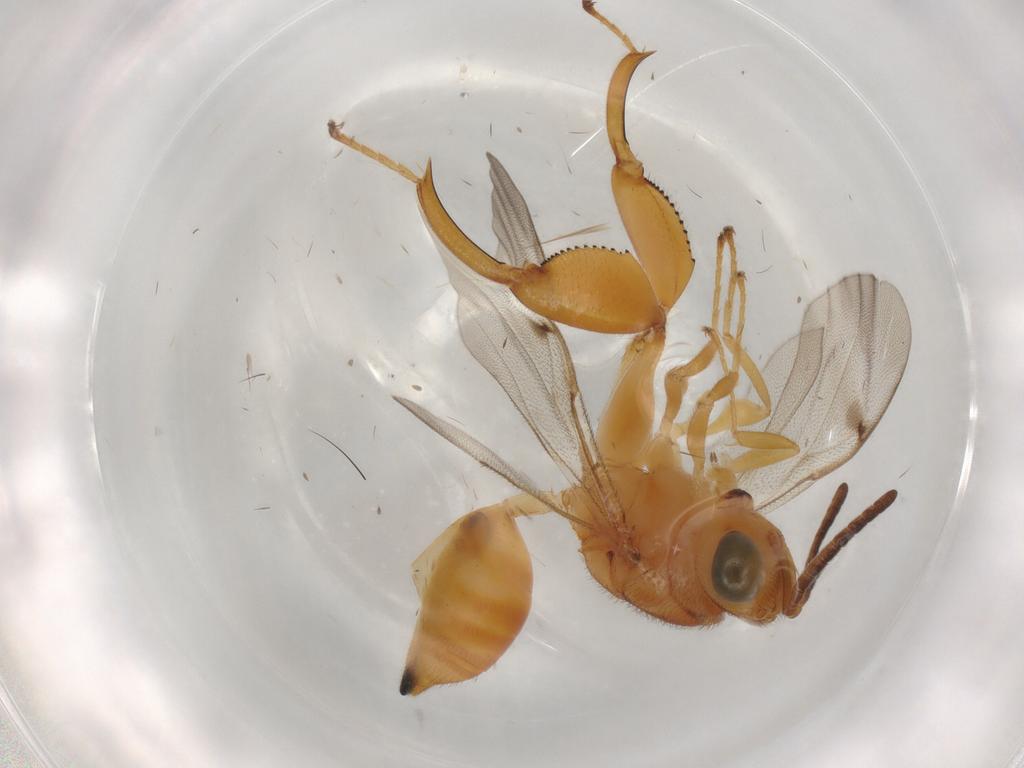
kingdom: Animalia
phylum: Arthropoda
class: Insecta
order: Hymenoptera
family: Chalcididae
